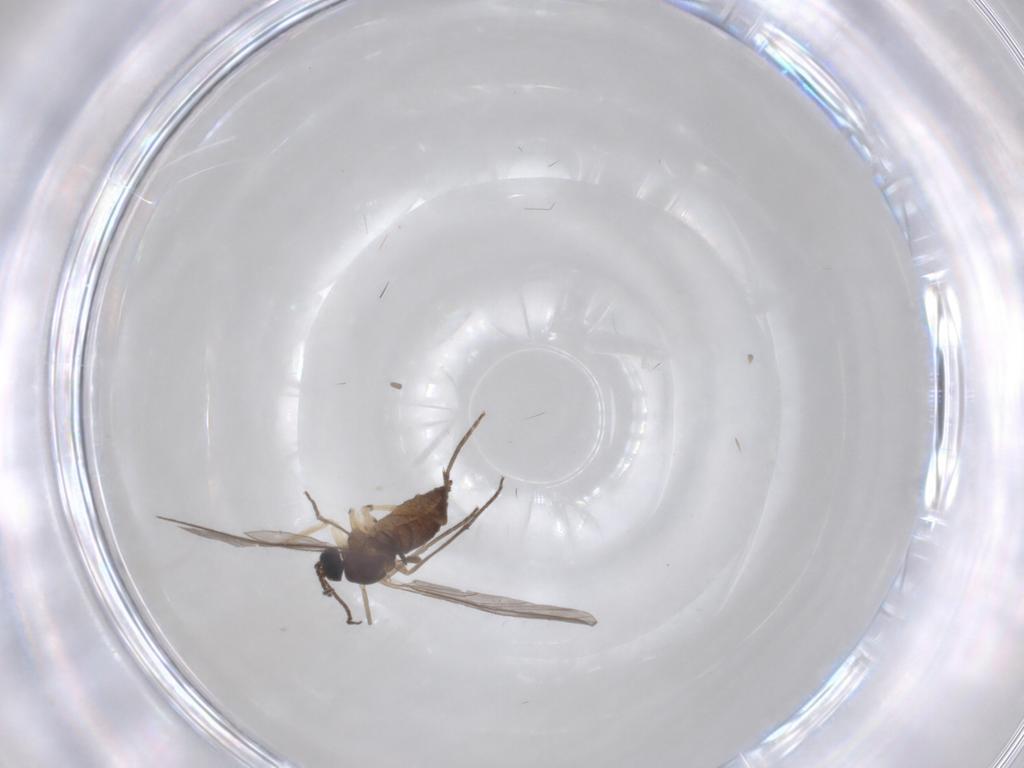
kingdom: Animalia
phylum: Arthropoda
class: Insecta
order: Diptera
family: Sciaridae
